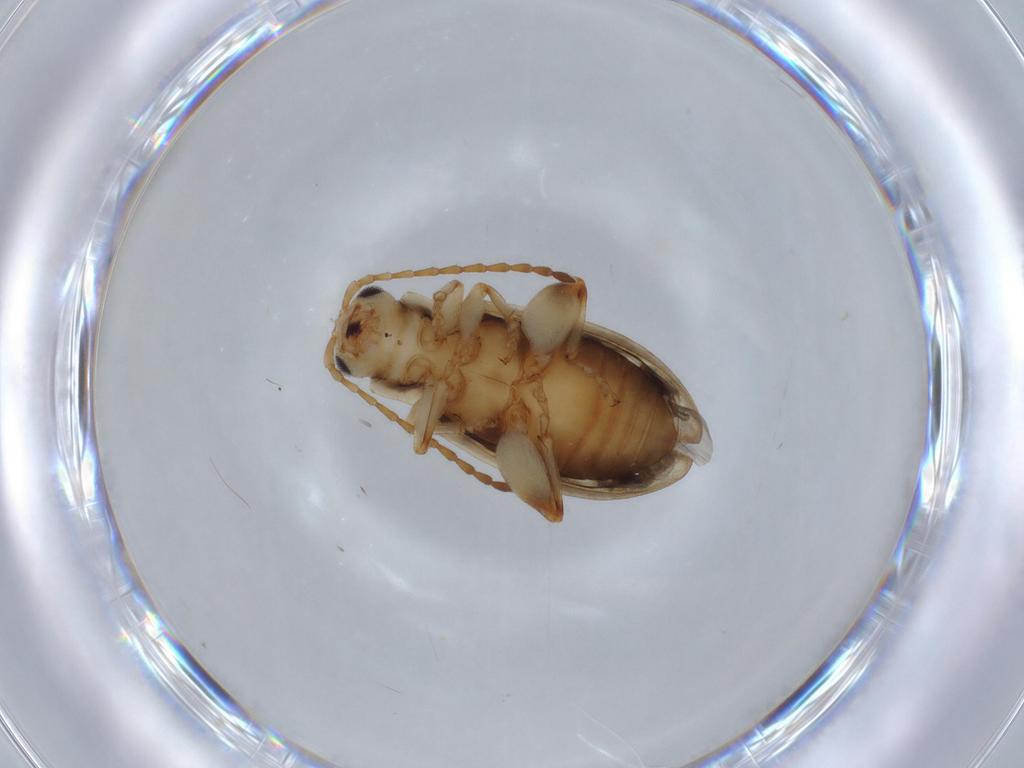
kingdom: Animalia
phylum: Arthropoda
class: Insecta
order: Coleoptera
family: Chrysomelidae
